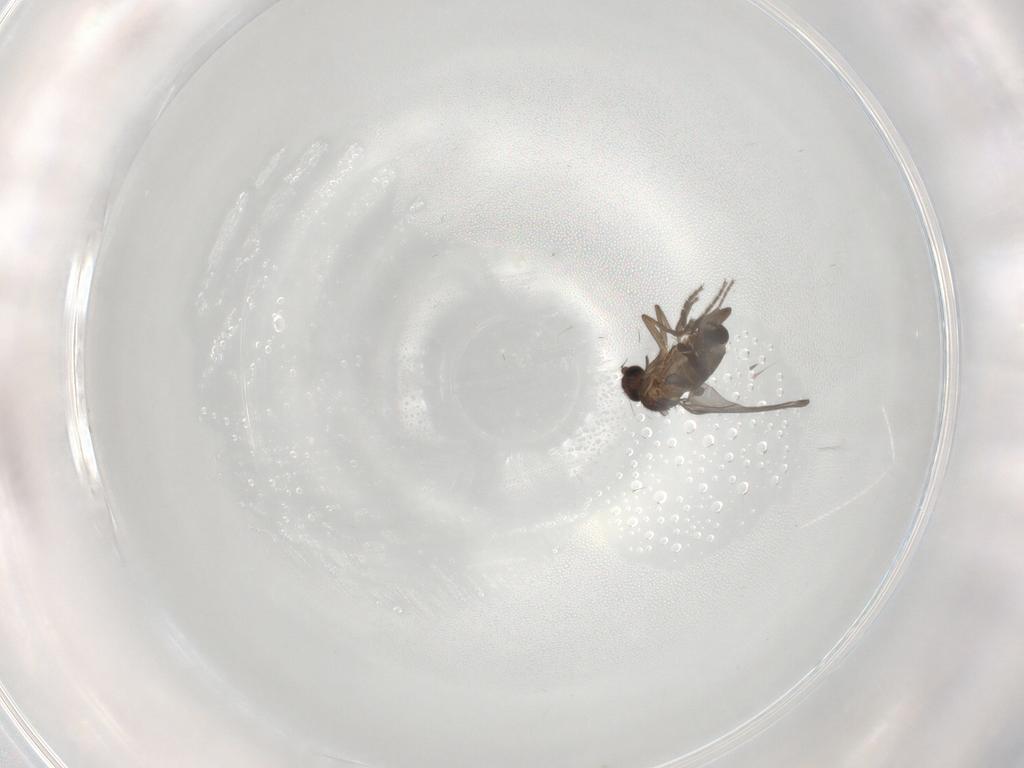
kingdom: Animalia
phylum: Arthropoda
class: Insecta
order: Diptera
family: Phoridae
